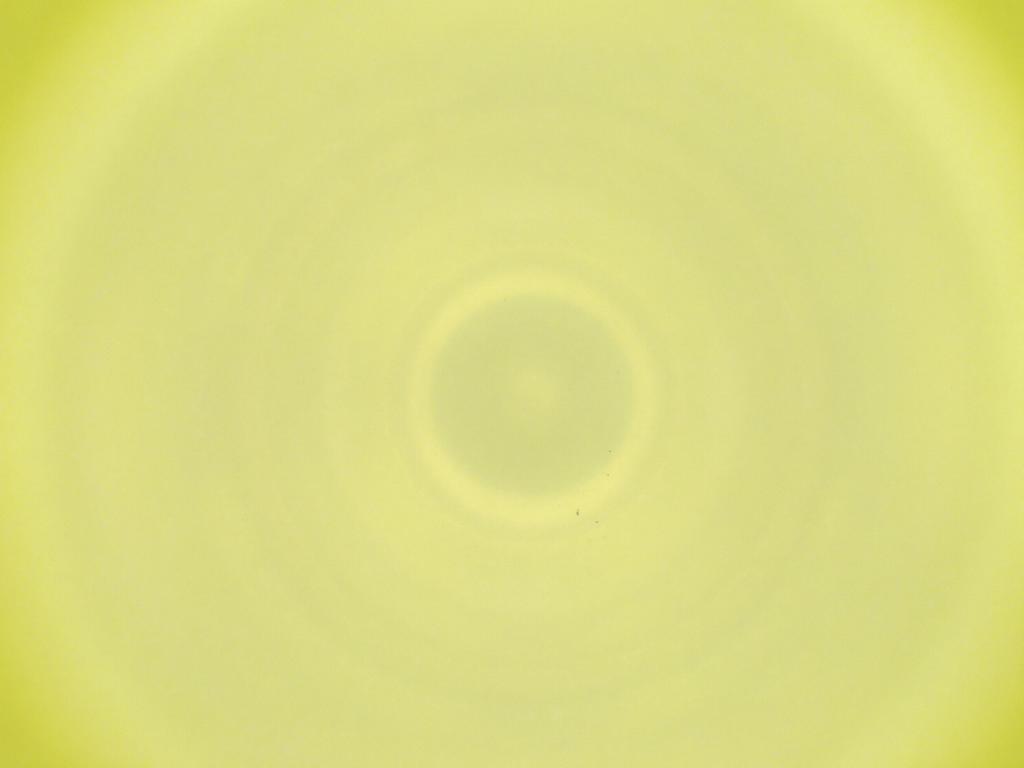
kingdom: Animalia
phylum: Arthropoda
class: Insecta
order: Diptera
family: Cecidomyiidae
